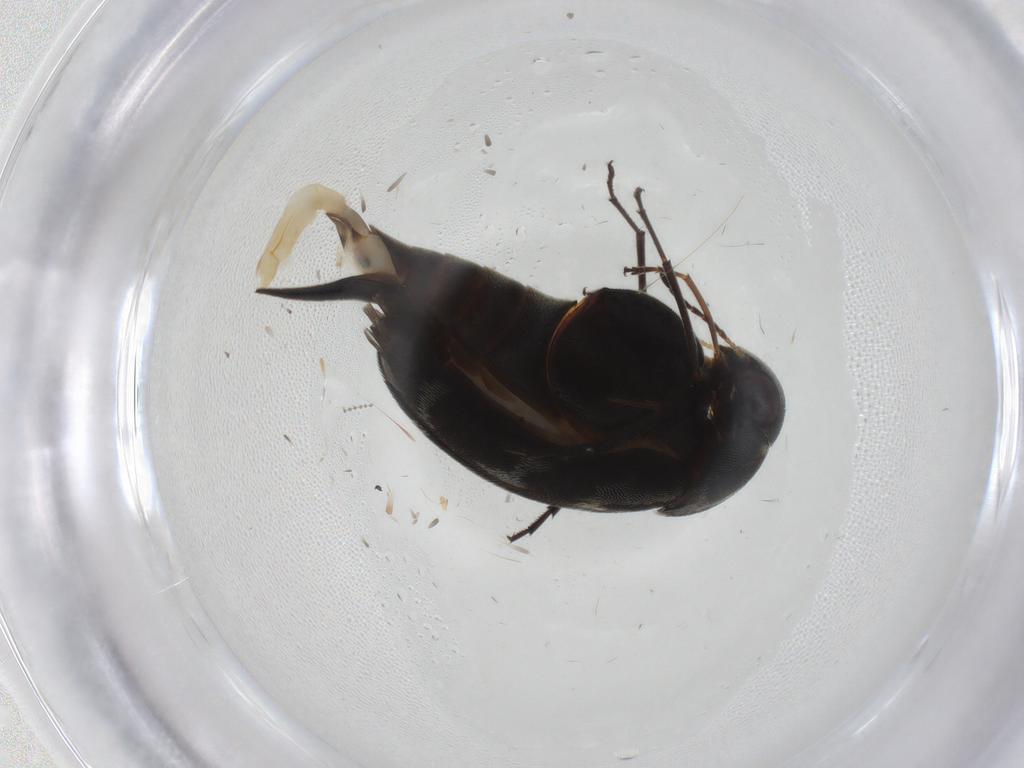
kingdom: Animalia
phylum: Arthropoda
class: Insecta
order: Coleoptera
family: Mordellidae
